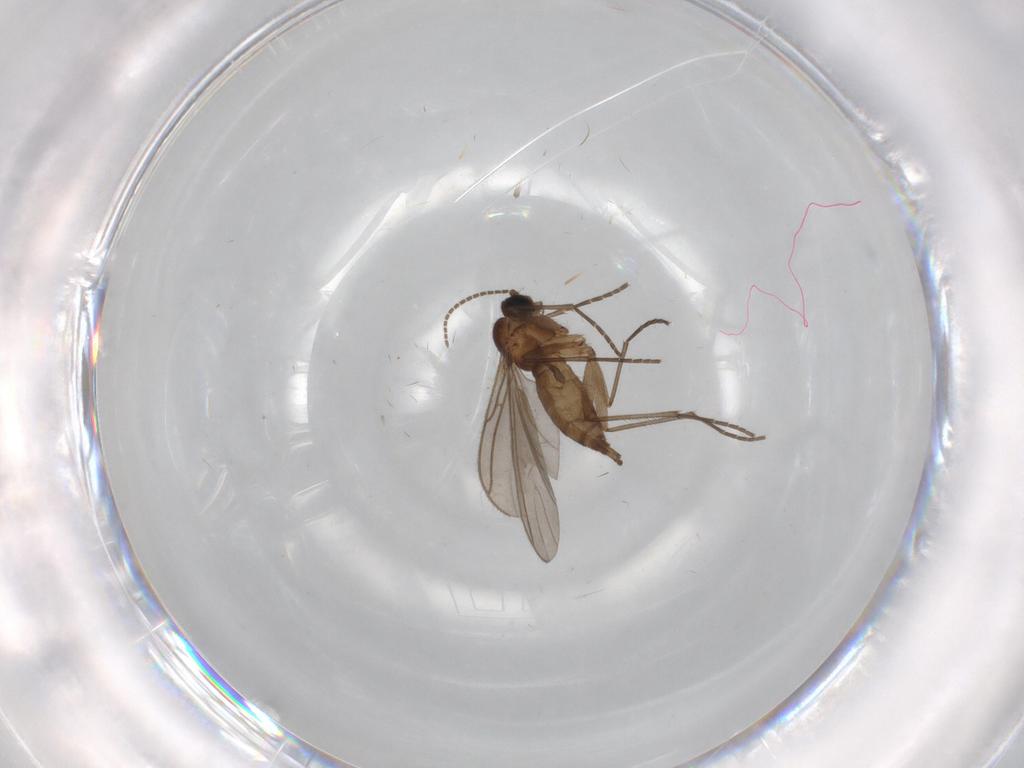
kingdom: Animalia
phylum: Arthropoda
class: Insecta
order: Diptera
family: Sciaridae
